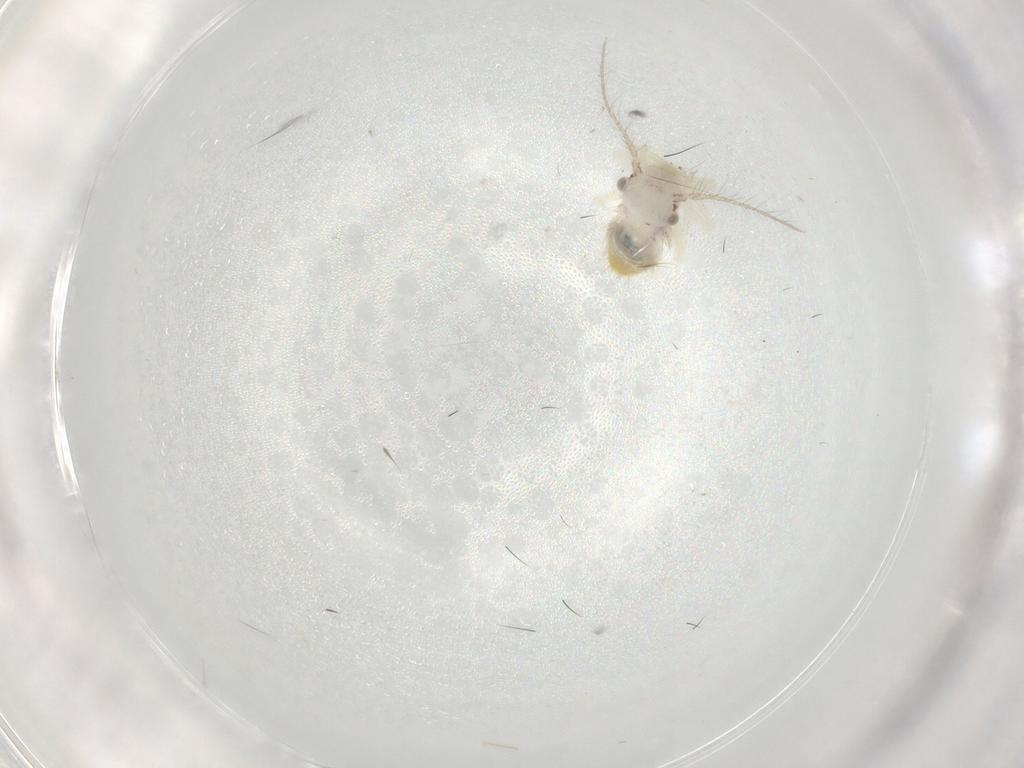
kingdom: Animalia
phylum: Arthropoda
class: Insecta
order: Psocodea
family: Pseudocaeciliidae
